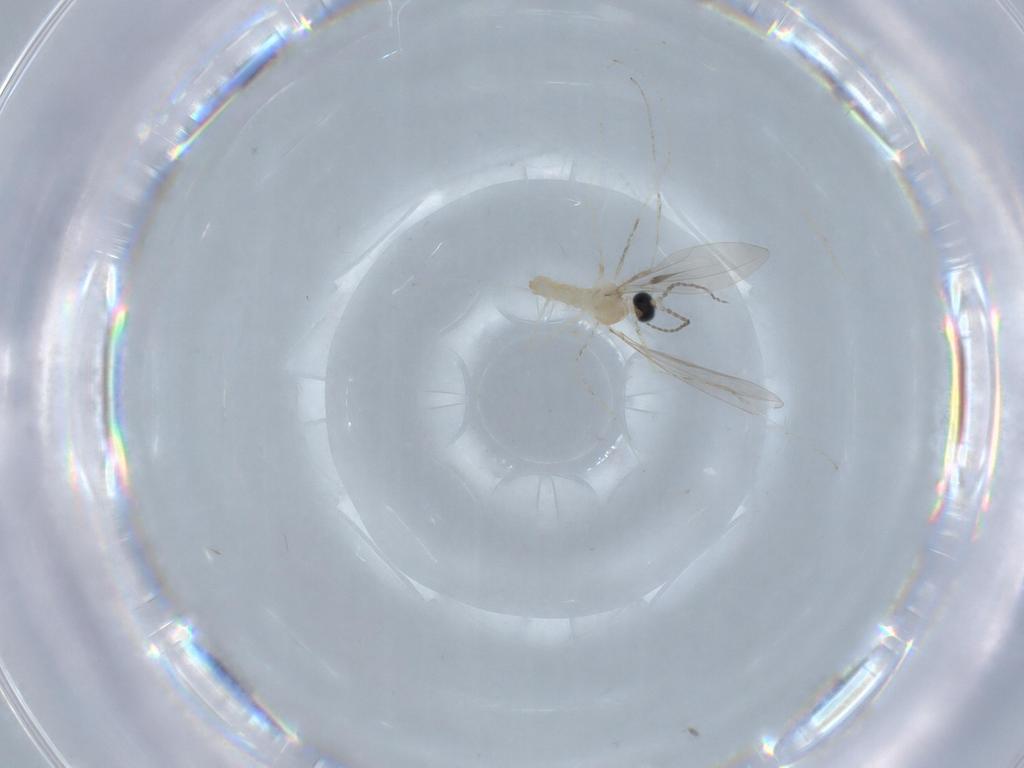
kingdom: Animalia
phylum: Arthropoda
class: Insecta
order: Diptera
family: Cecidomyiidae
